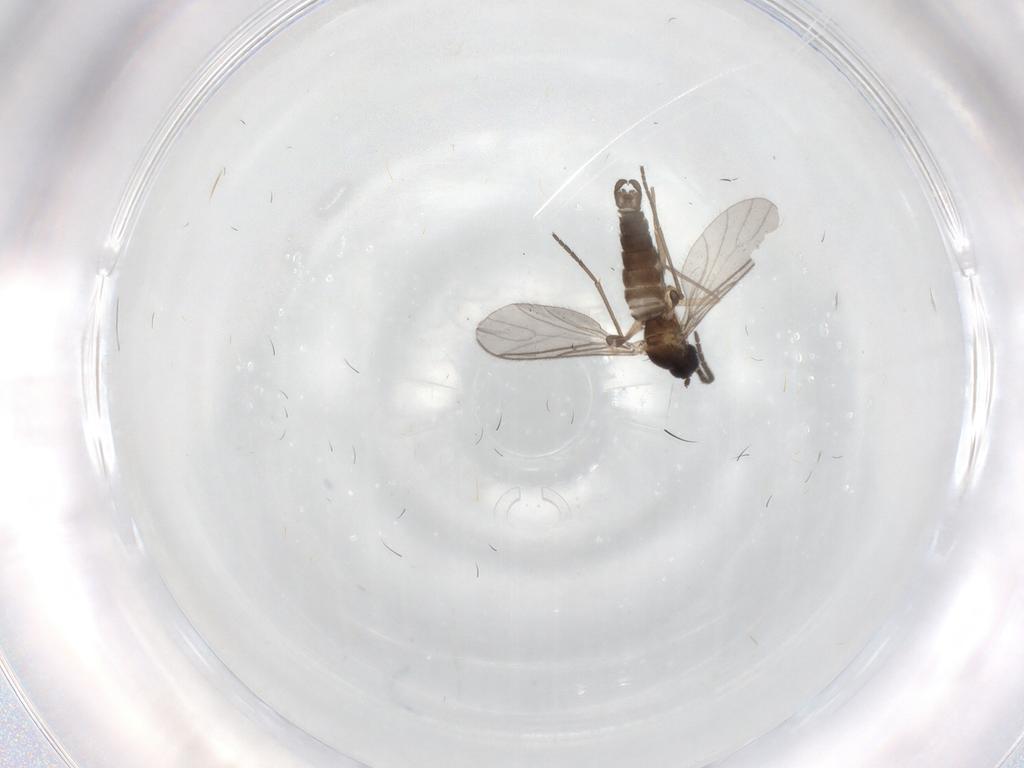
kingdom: Animalia
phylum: Arthropoda
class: Insecta
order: Diptera
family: Sciaridae
